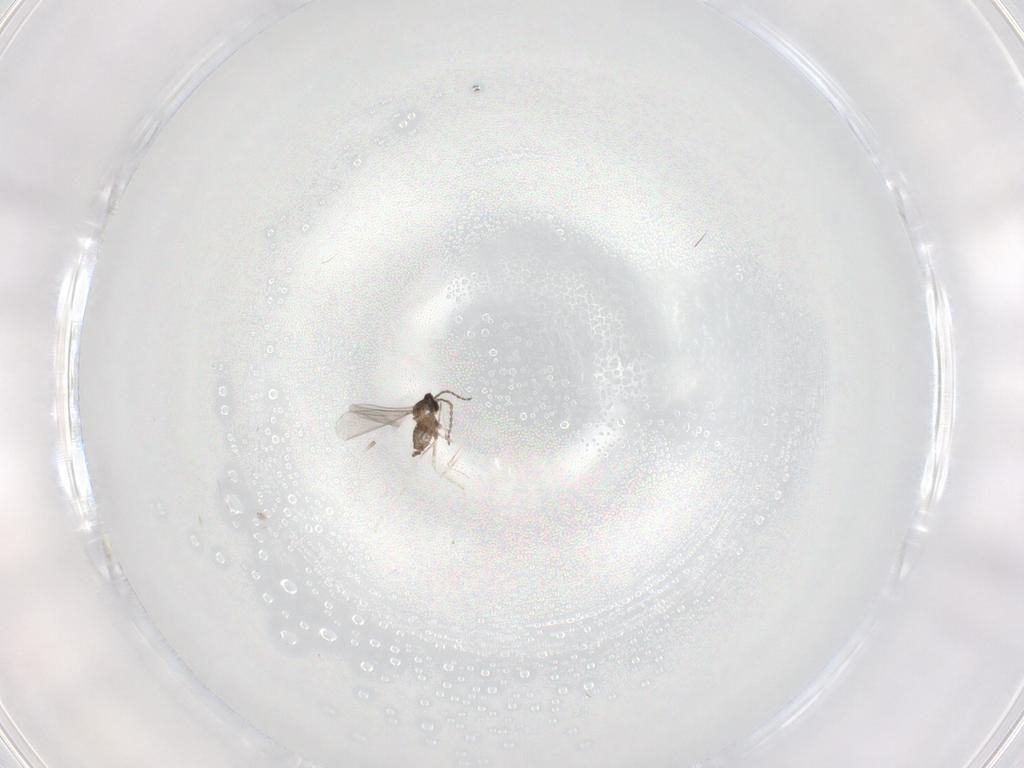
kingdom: Animalia
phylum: Arthropoda
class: Insecta
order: Diptera
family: Cecidomyiidae
